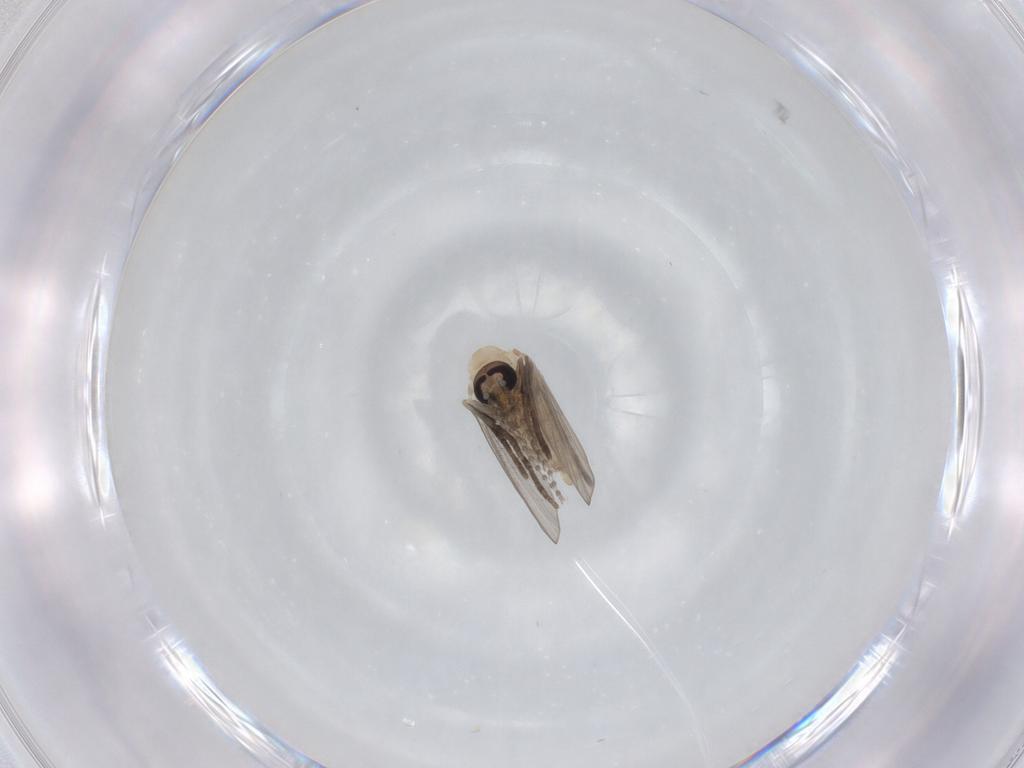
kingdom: Animalia
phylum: Arthropoda
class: Insecta
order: Diptera
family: Psychodidae
